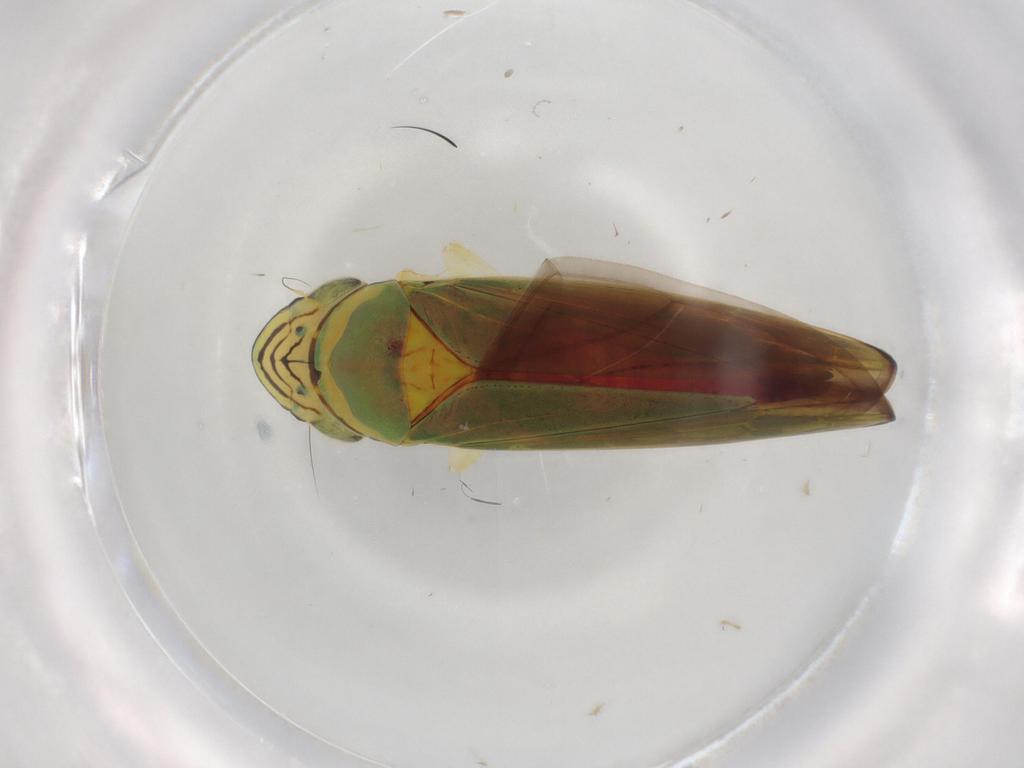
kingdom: Animalia
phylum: Arthropoda
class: Insecta
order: Hemiptera
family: Cicadellidae
